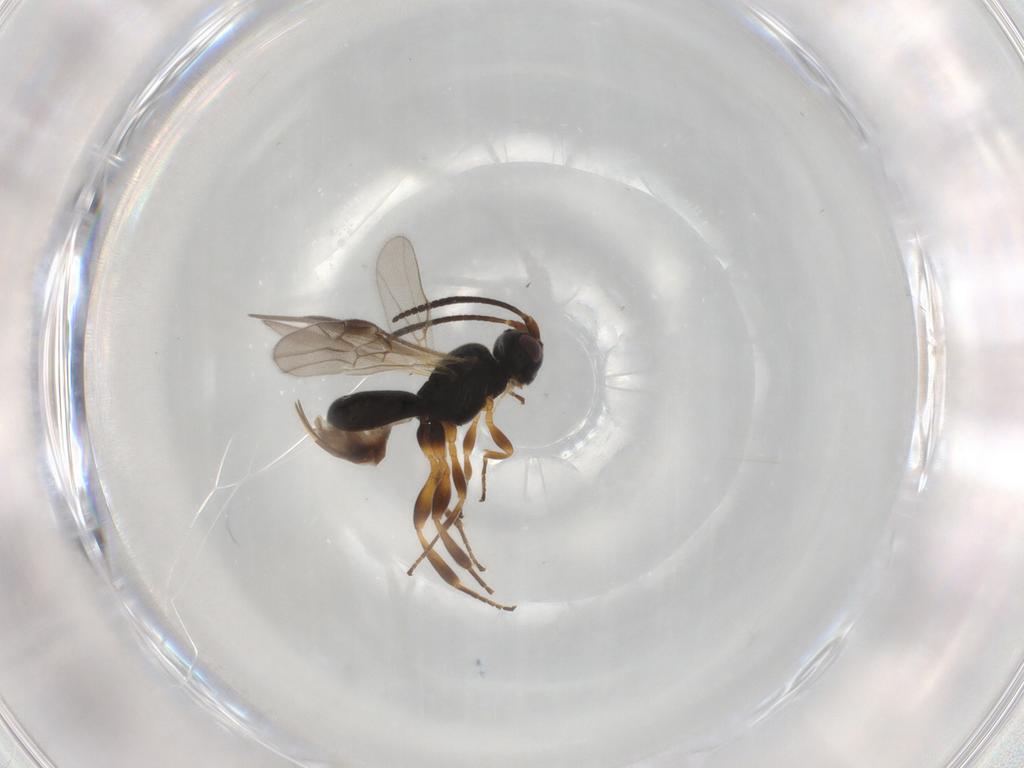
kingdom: Animalia
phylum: Arthropoda
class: Insecta
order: Hymenoptera
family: Braconidae
